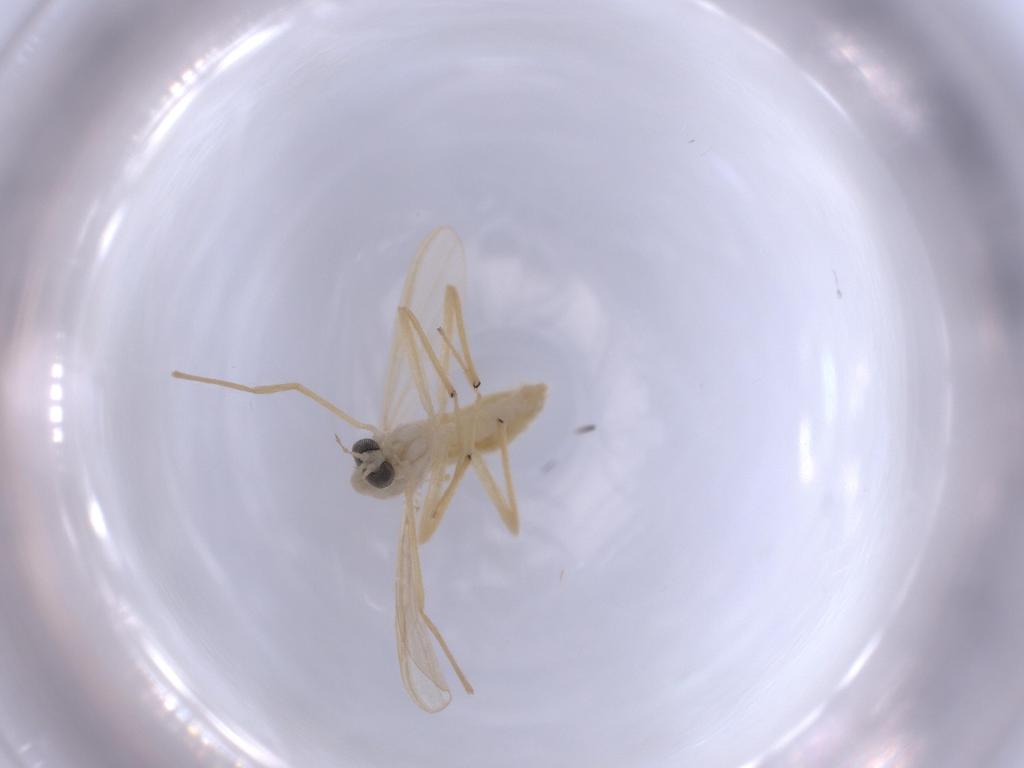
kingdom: Animalia
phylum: Arthropoda
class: Insecta
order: Diptera
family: Chironomidae
